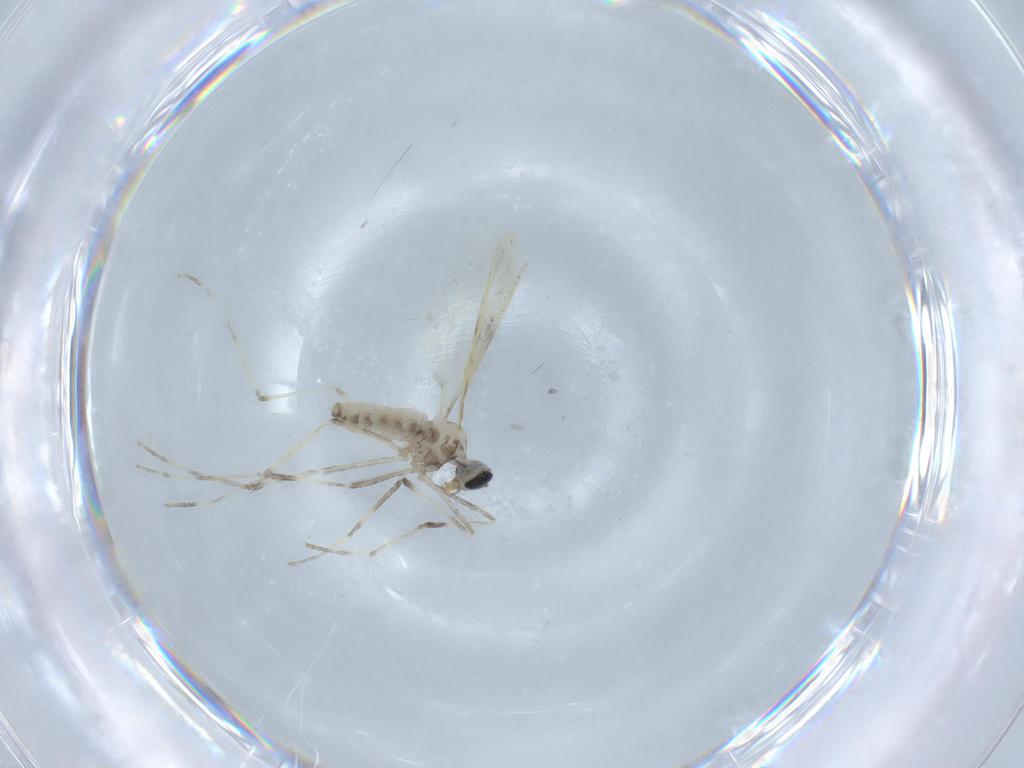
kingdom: Animalia
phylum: Arthropoda
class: Insecta
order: Diptera
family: Cecidomyiidae
